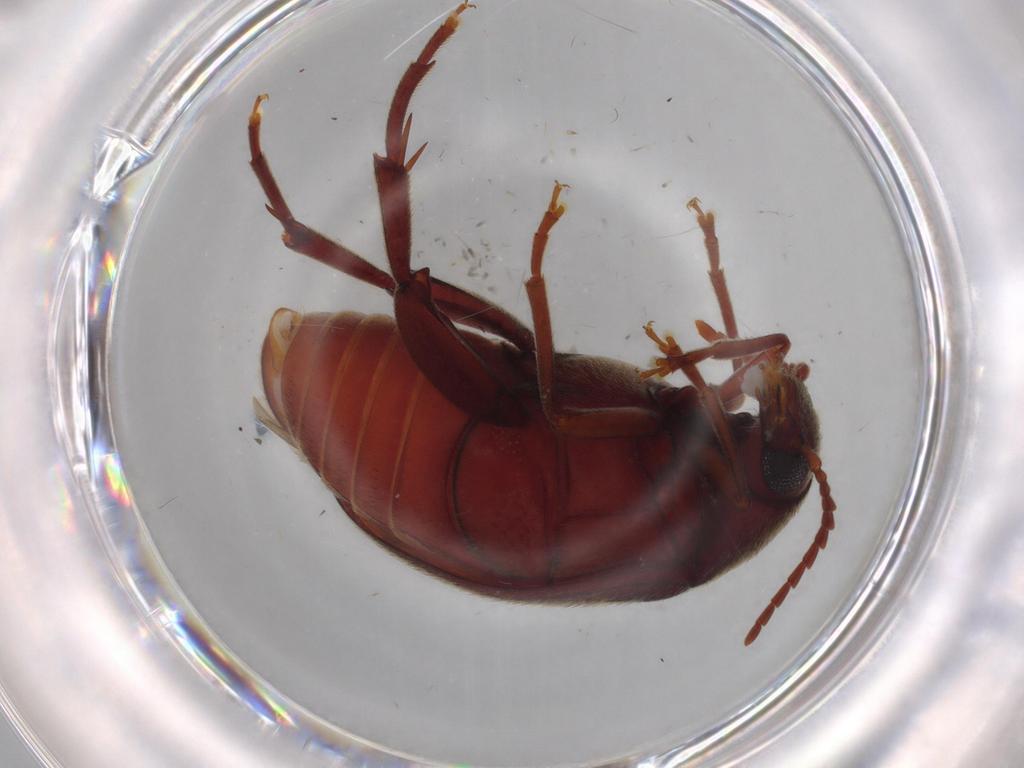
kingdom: Animalia
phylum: Arthropoda
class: Insecta
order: Coleoptera
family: Chrysomelidae
